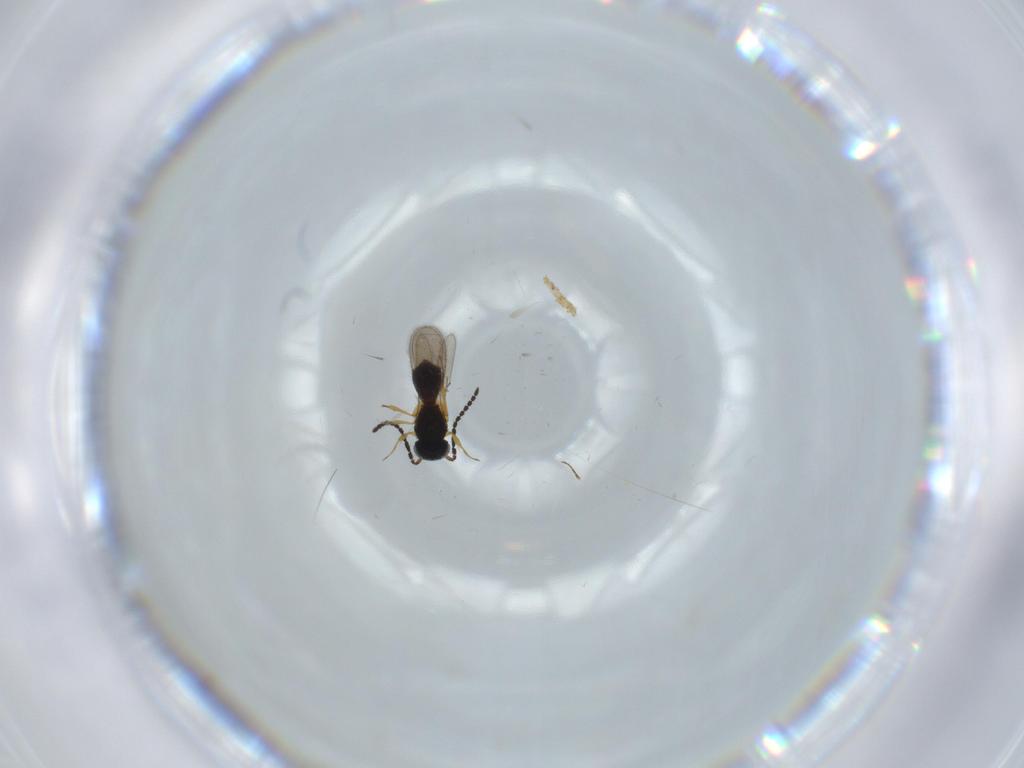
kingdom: Animalia
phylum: Arthropoda
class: Insecta
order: Hymenoptera
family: Scelionidae
